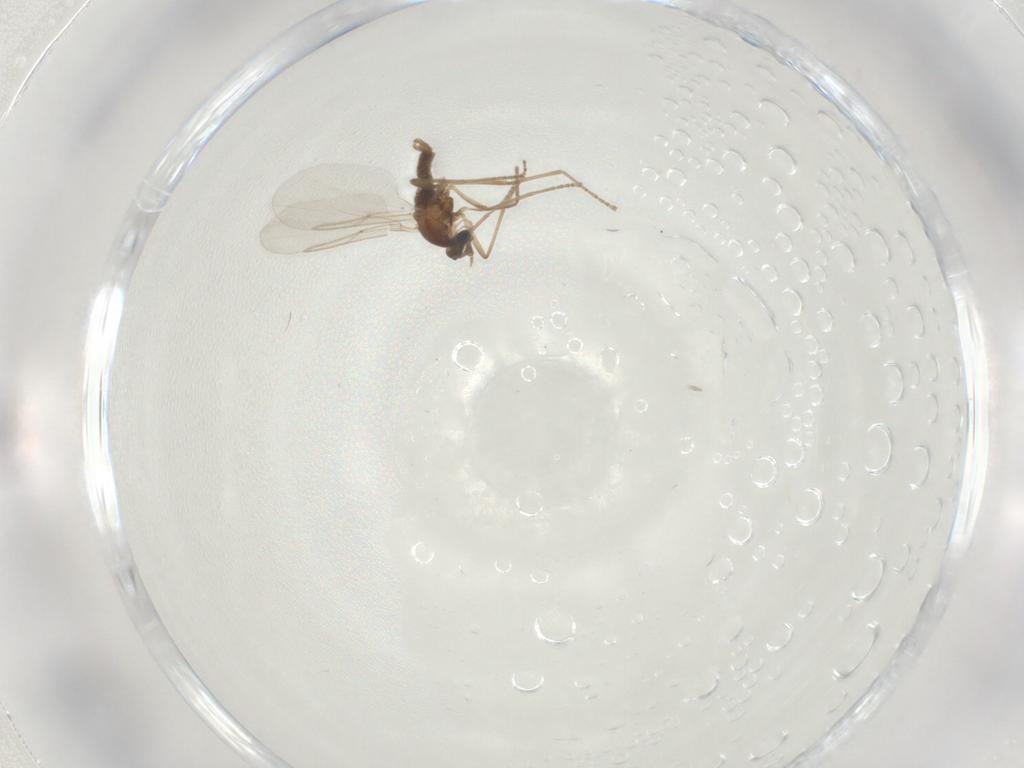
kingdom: Animalia
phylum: Arthropoda
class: Insecta
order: Diptera
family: Cecidomyiidae
